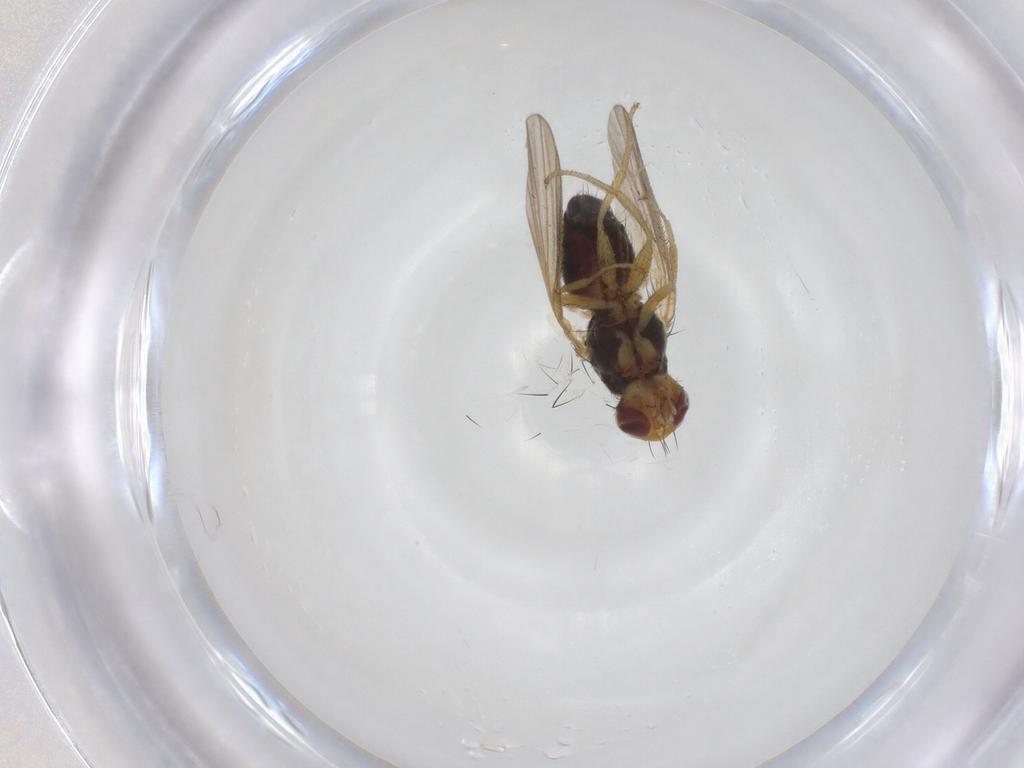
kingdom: Animalia
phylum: Arthropoda
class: Insecta
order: Diptera
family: Heleomyzidae
